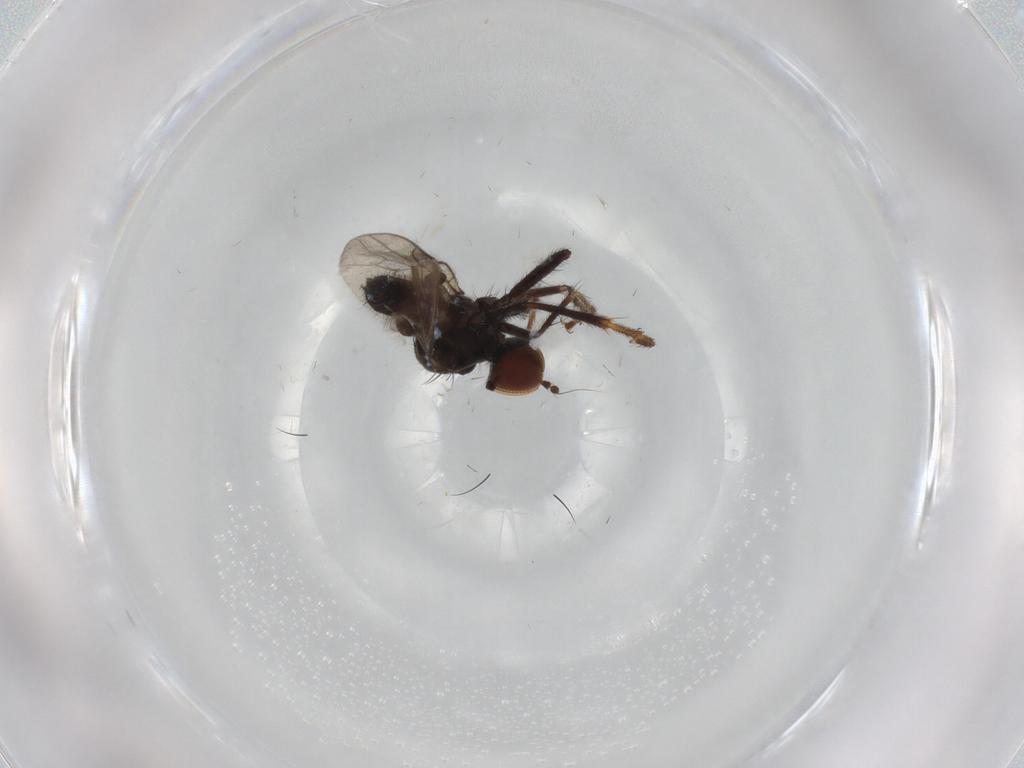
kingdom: Animalia
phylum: Arthropoda
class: Insecta
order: Diptera
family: Hybotidae
